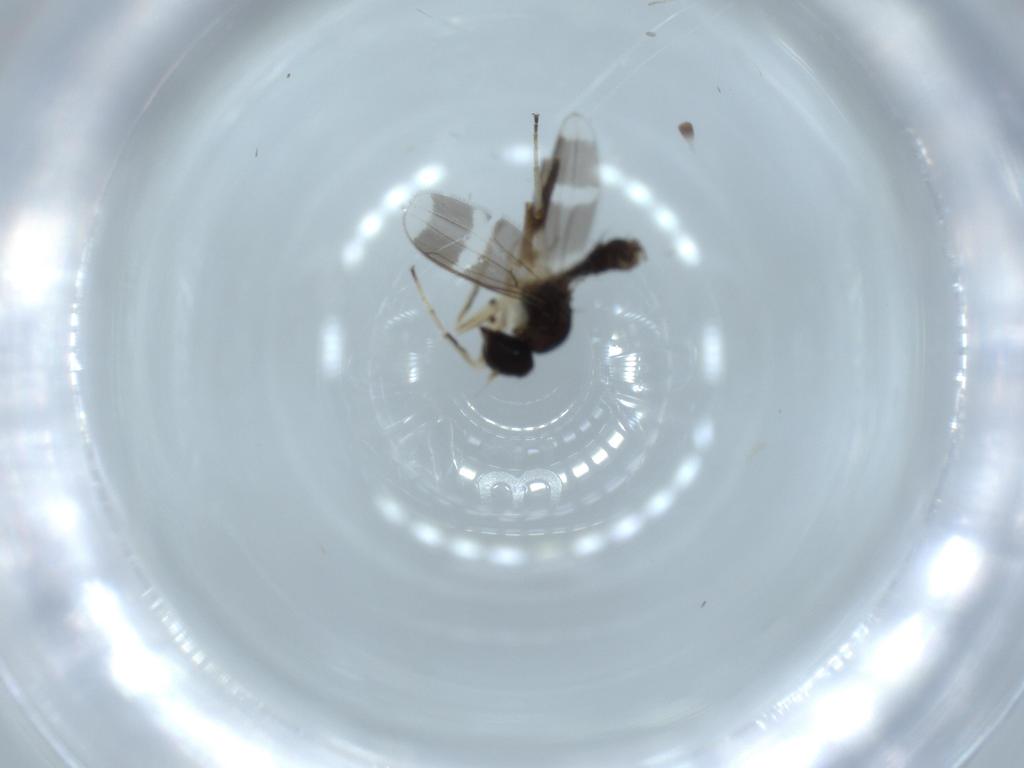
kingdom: Animalia
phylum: Arthropoda
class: Insecta
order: Diptera
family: Hybotidae
